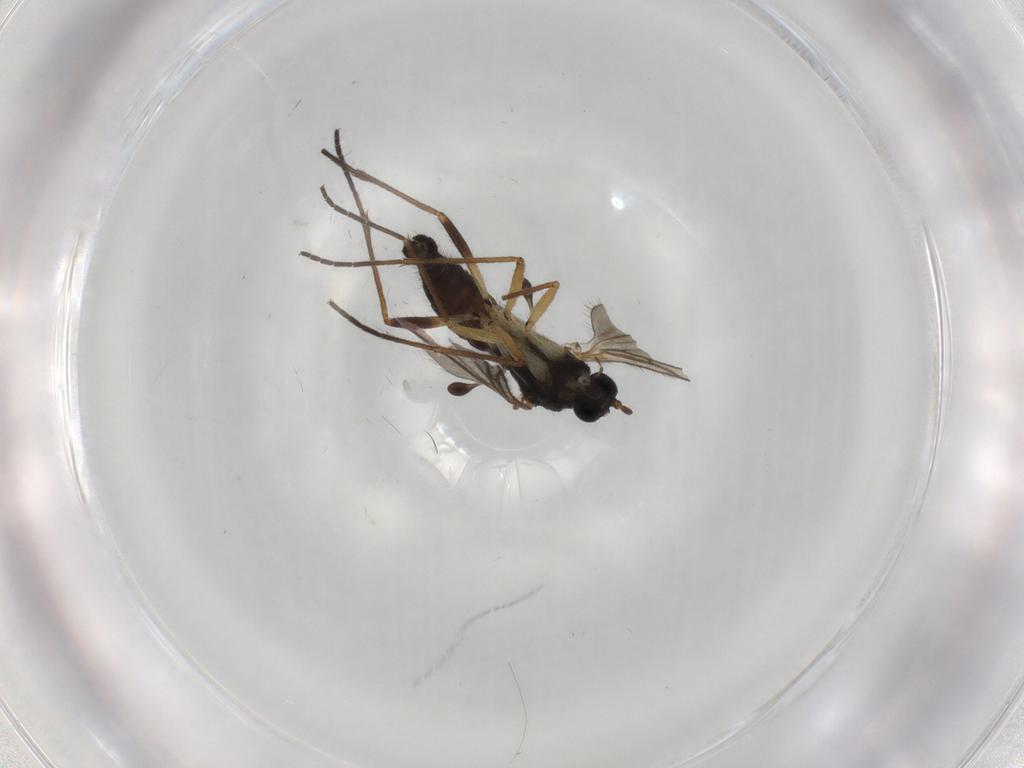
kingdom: Animalia
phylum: Arthropoda
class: Insecta
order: Diptera
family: Sciaridae
